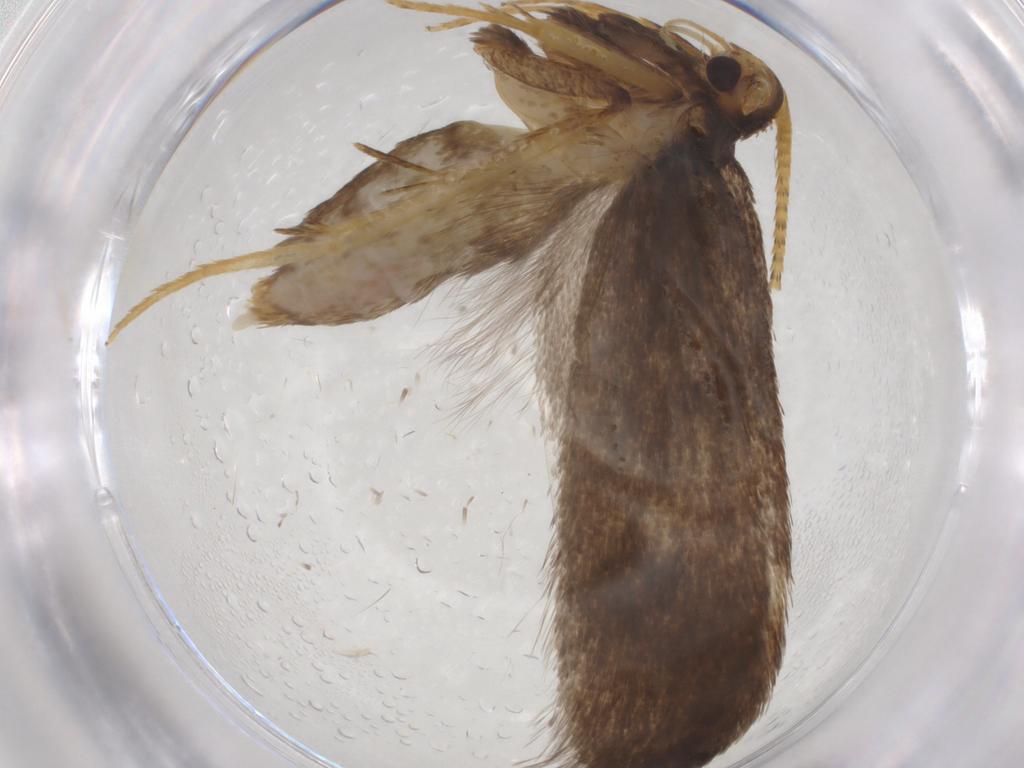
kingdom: Animalia
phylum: Arthropoda
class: Insecta
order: Lepidoptera
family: Lecithoceridae
